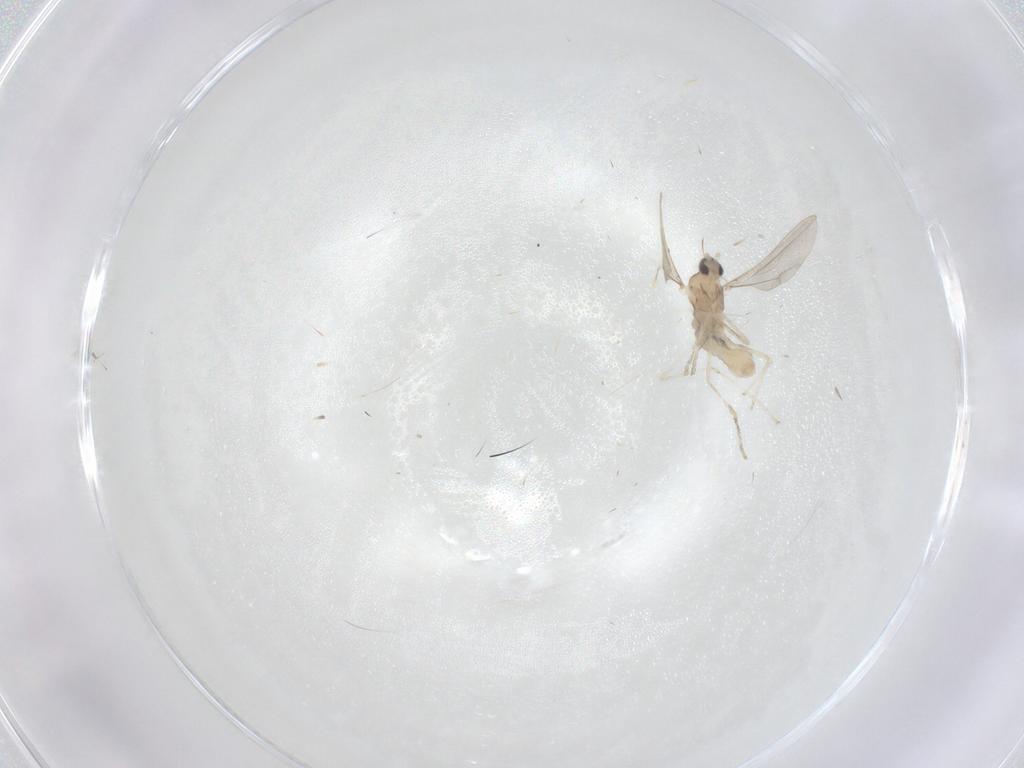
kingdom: Animalia
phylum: Arthropoda
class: Insecta
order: Diptera
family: Cecidomyiidae
